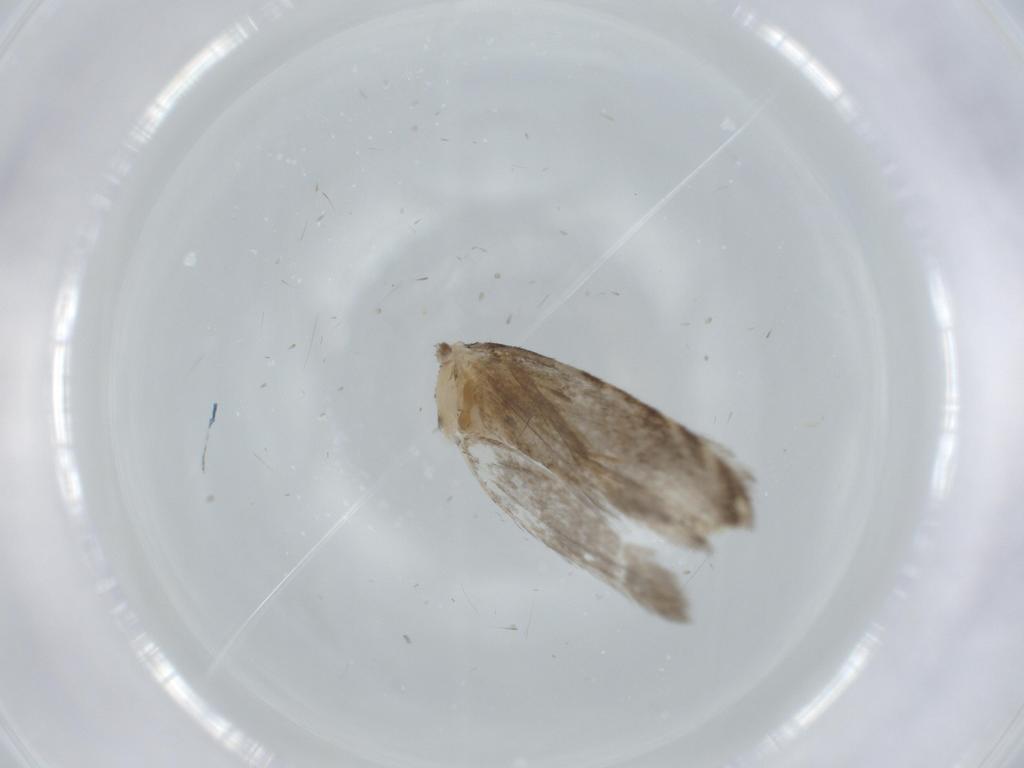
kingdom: Animalia
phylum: Arthropoda
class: Insecta
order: Lepidoptera
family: Tineidae
